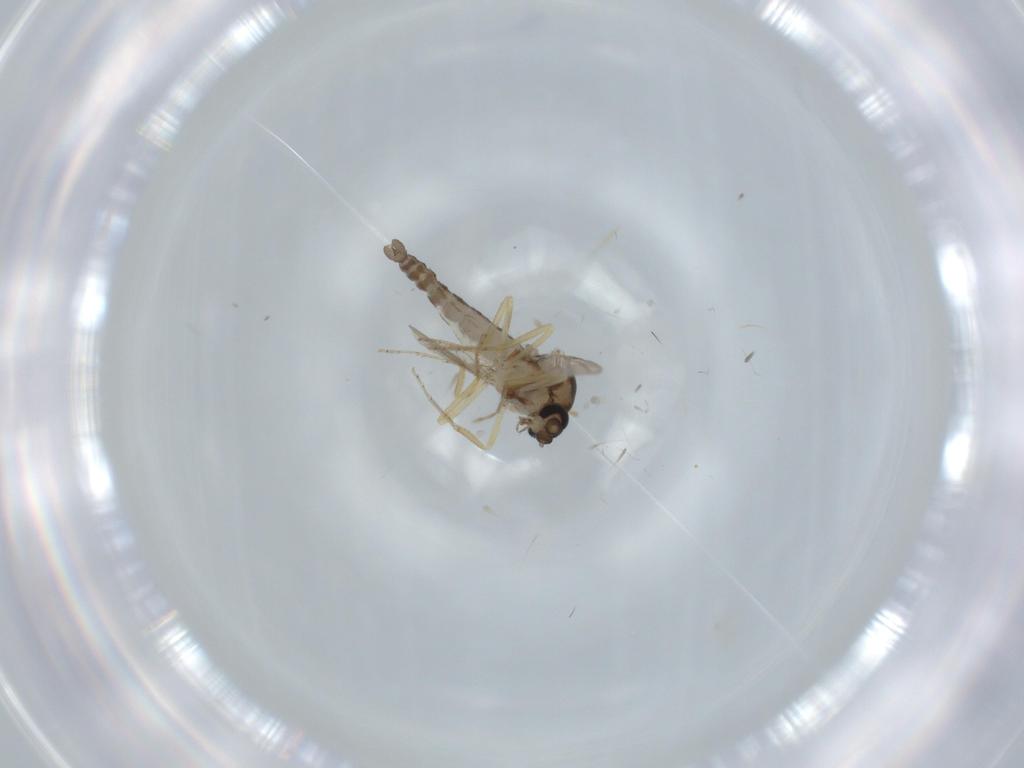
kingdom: Animalia
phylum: Arthropoda
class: Insecta
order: Diptera
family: Ceratopogonidae
